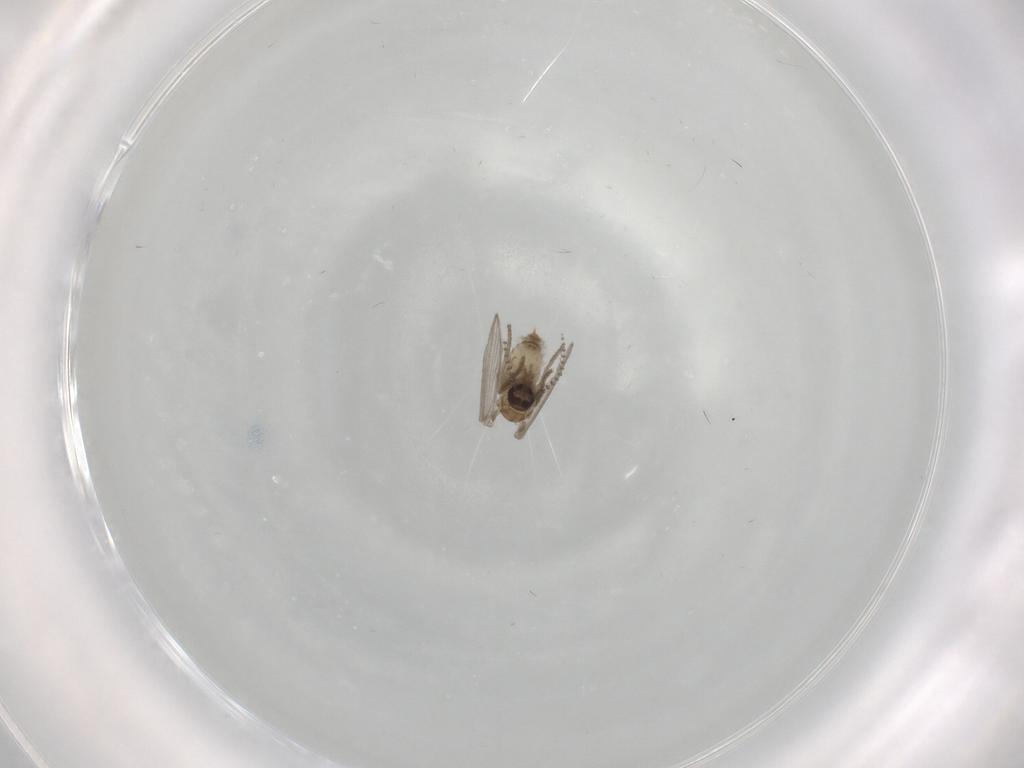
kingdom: Animalia
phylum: Arthropoda
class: Insecta
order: Diptera
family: Psychodidae
